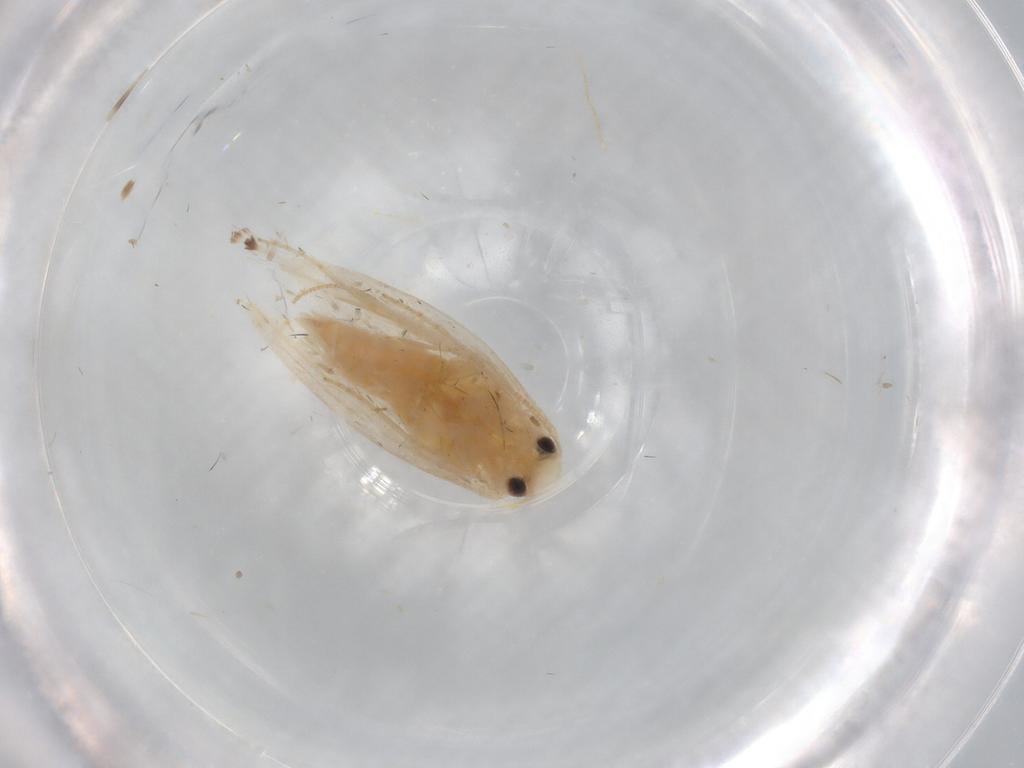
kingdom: Animalia
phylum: Arthropoda
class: Insecta
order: Lepidoptera
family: Gracillariidae
